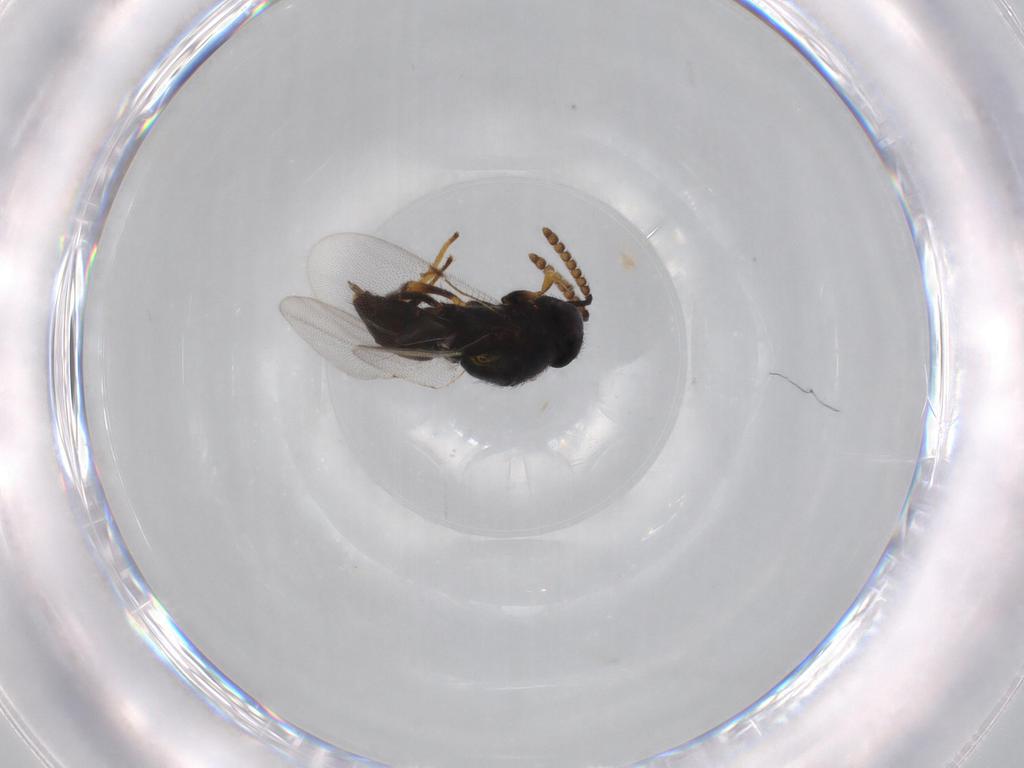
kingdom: Animalia
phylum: Arthropoda
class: Insecta
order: Hymenoptera
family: Encyrtidae
